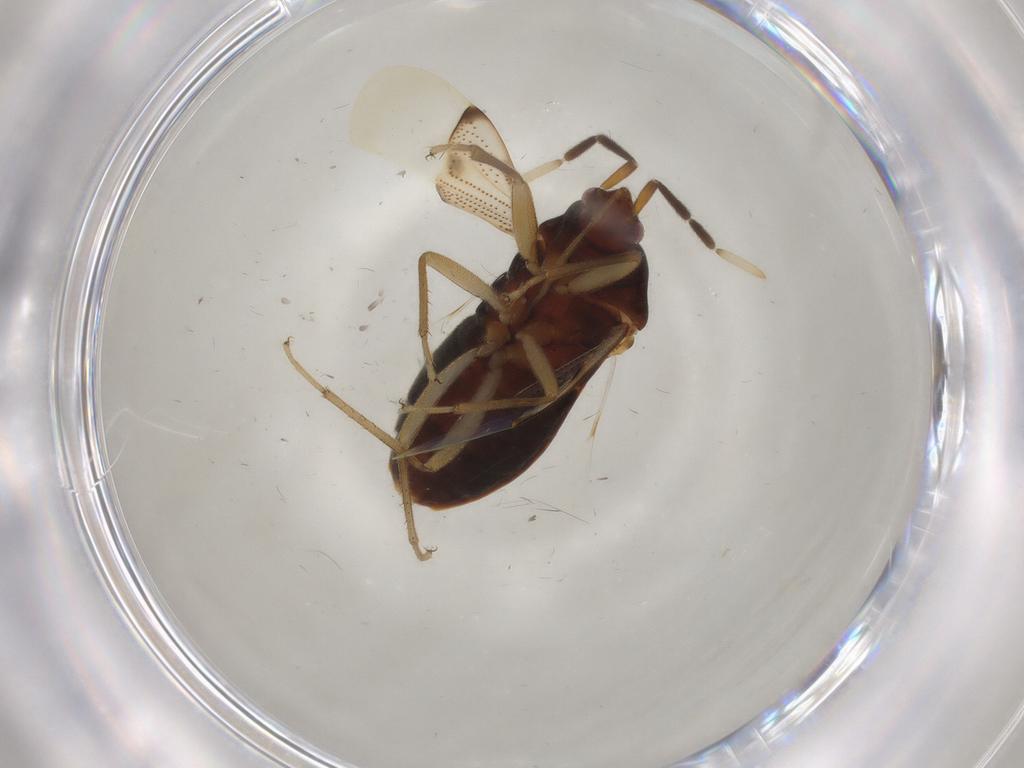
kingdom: Animalia
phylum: Arthropoda
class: Insecta
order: Hemiptera
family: Rhyparochromidae
